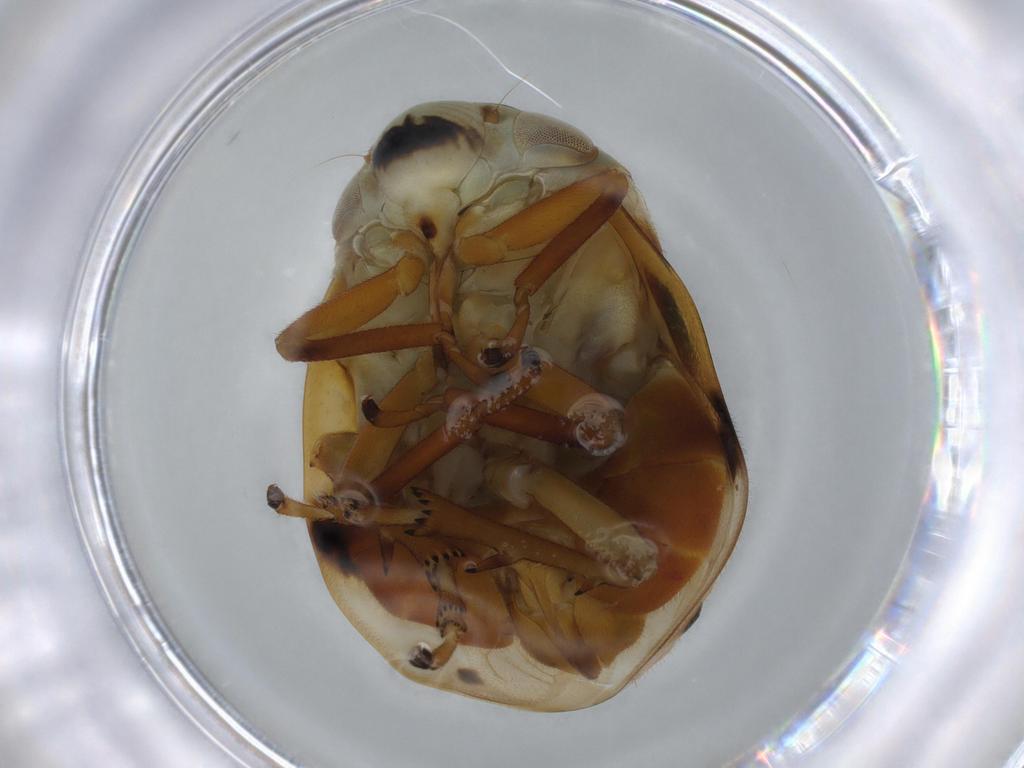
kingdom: Animalia
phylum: Arthropoda
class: Insecta
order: Hemiptera
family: Clastopteridae
